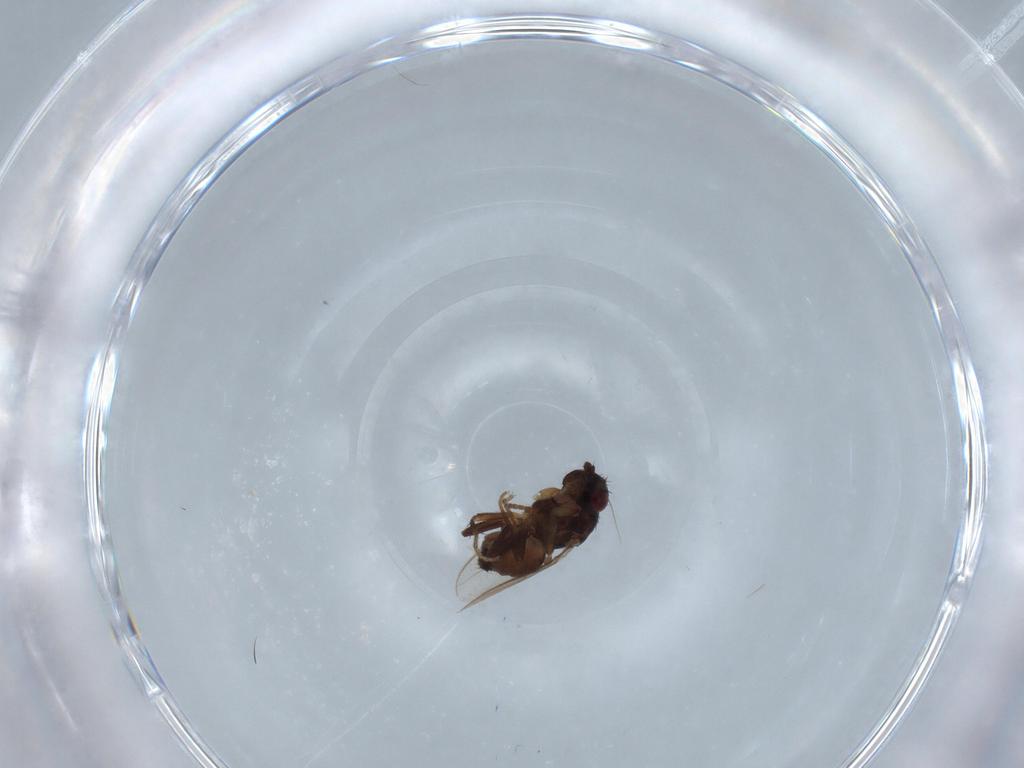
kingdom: Animalia
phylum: Arthropoda
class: Insecta
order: Diptera
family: Sphaeroceridae
